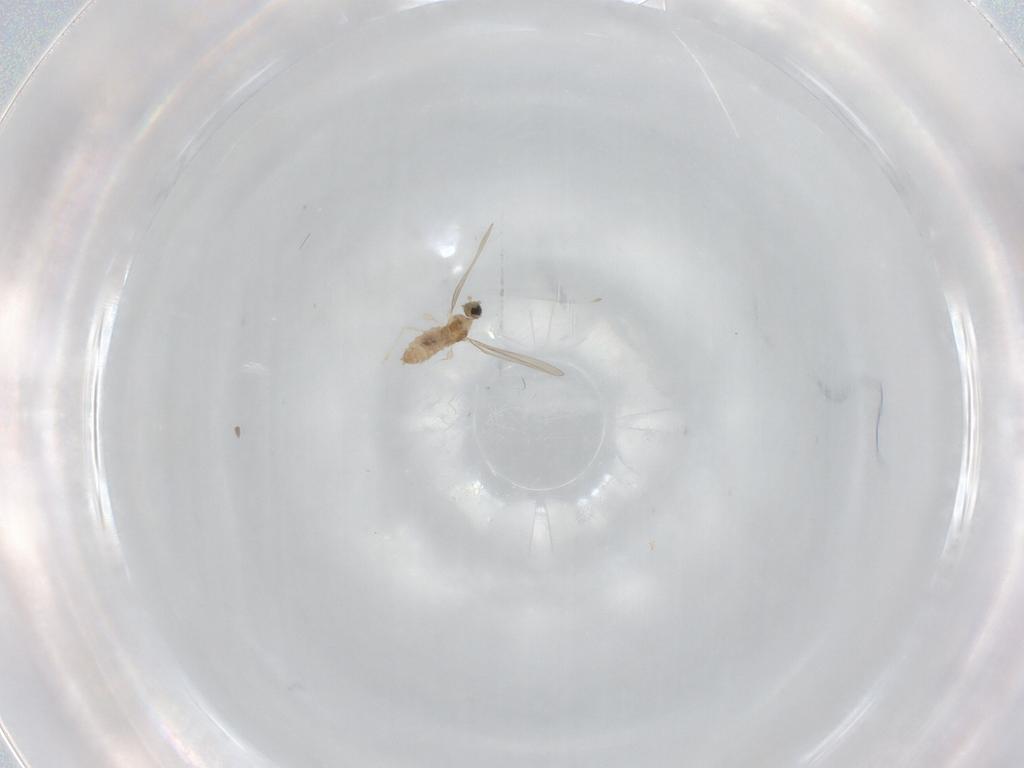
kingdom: Animalia
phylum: Arthropoda
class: Insecta
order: Diptera
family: Cecidomyiidae
